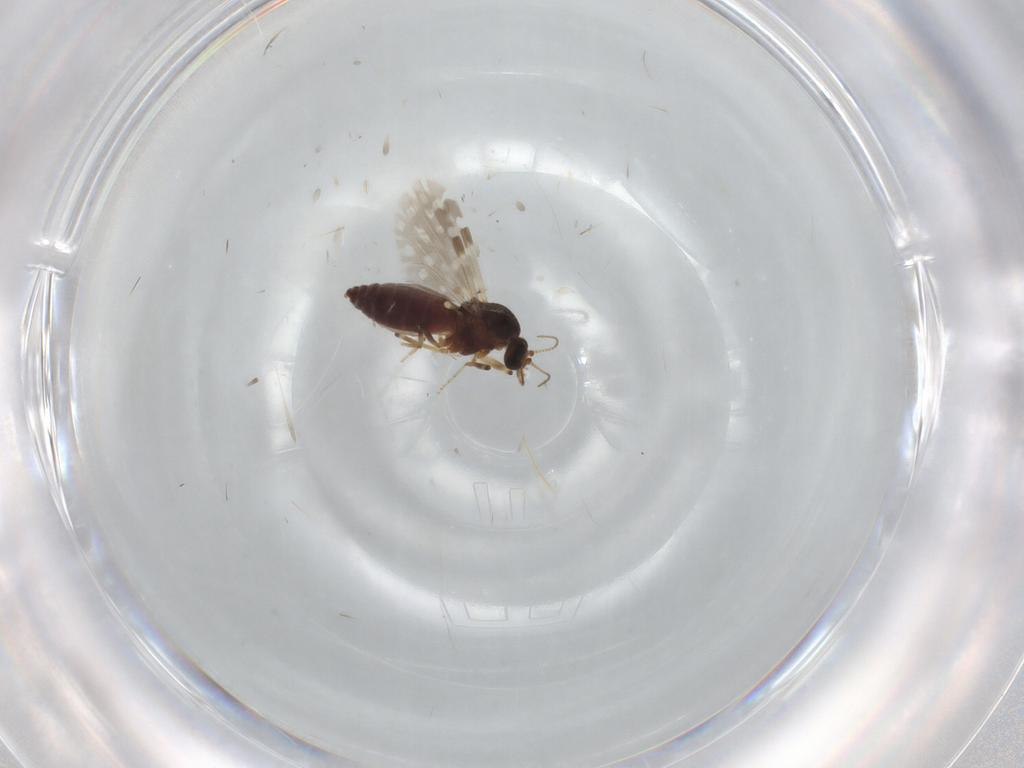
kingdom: Animalia
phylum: Arthropoda
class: Insecta
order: Diptera
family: Ceratopogonidae
